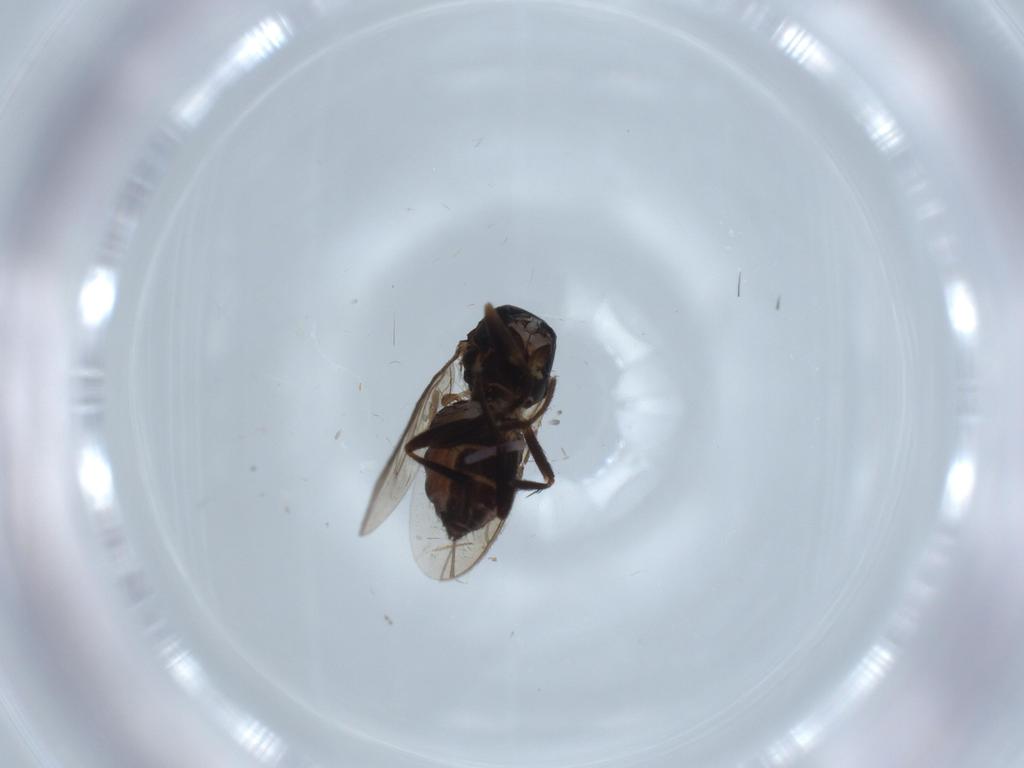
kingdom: Animalia
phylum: Arthropoda
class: Insecta
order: Diptera
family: Sphaeroceridae
